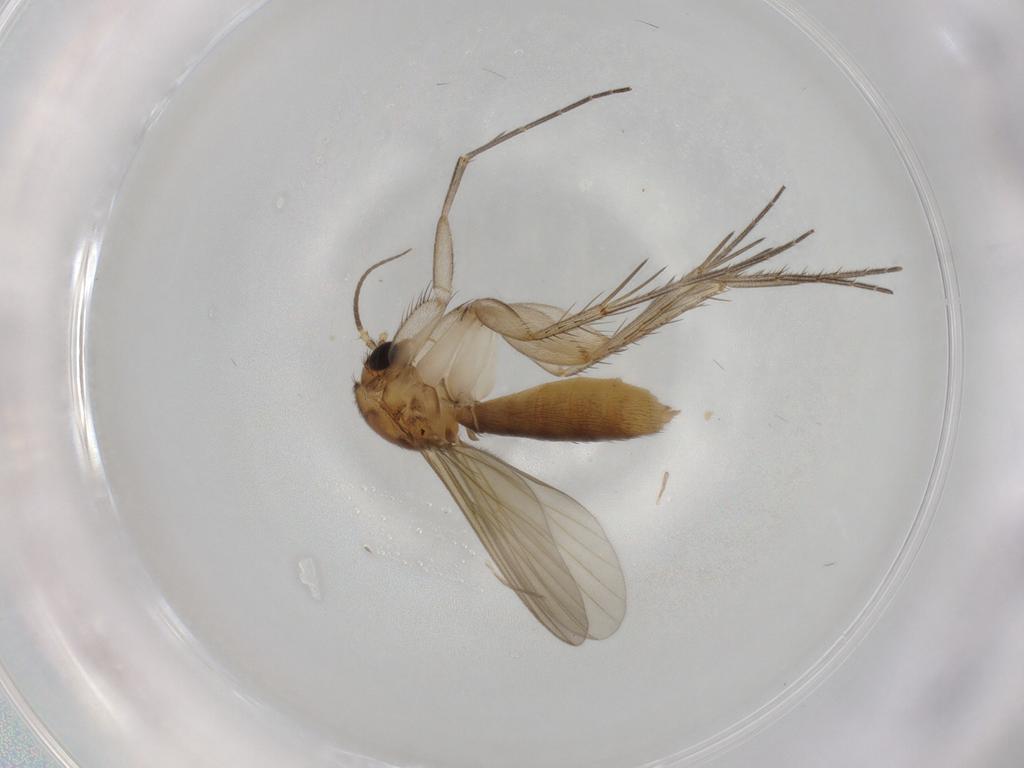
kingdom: Animalia
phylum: Arthropoda
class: Insecta
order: Diptera
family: Mycetophilidae
